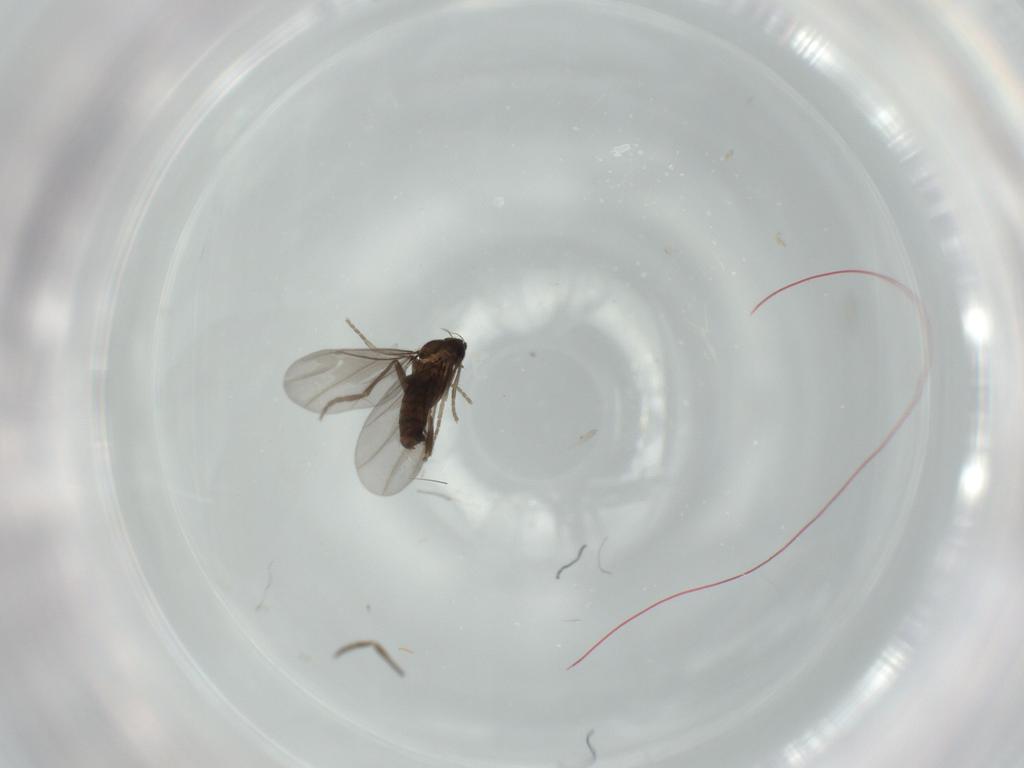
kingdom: Animalia
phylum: Arthropoda
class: Insecta
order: Diptera
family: Phoridae
